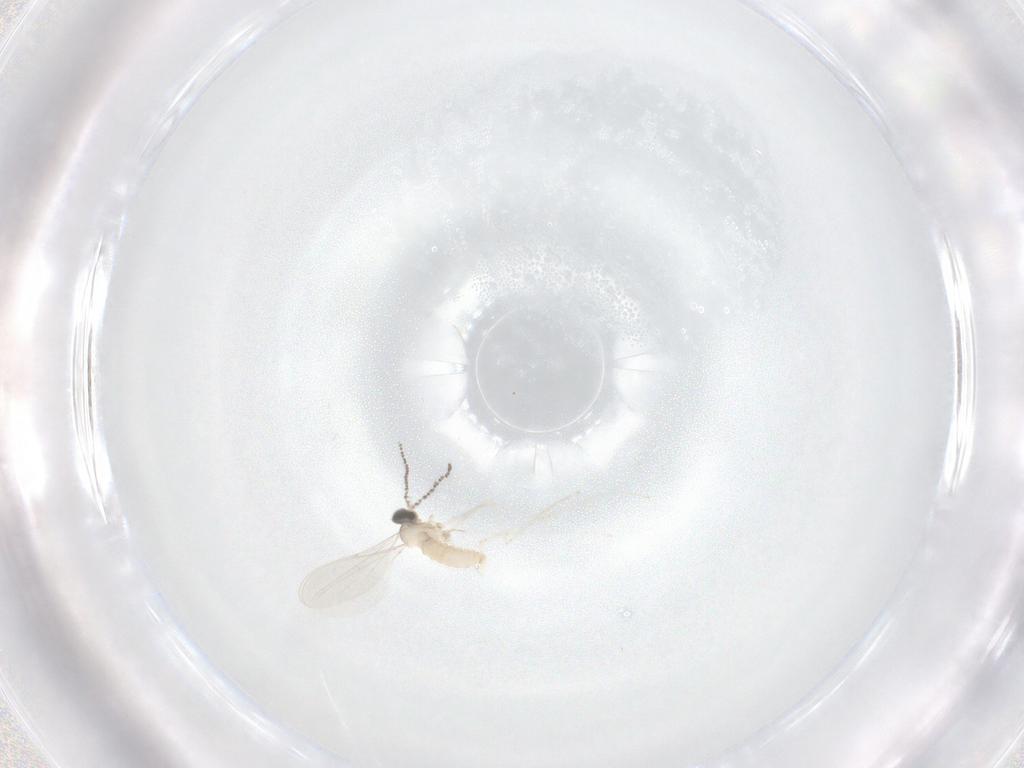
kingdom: Animalia
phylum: Arthropoda
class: Insecta
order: Diptera
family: Cecidomyiidae
